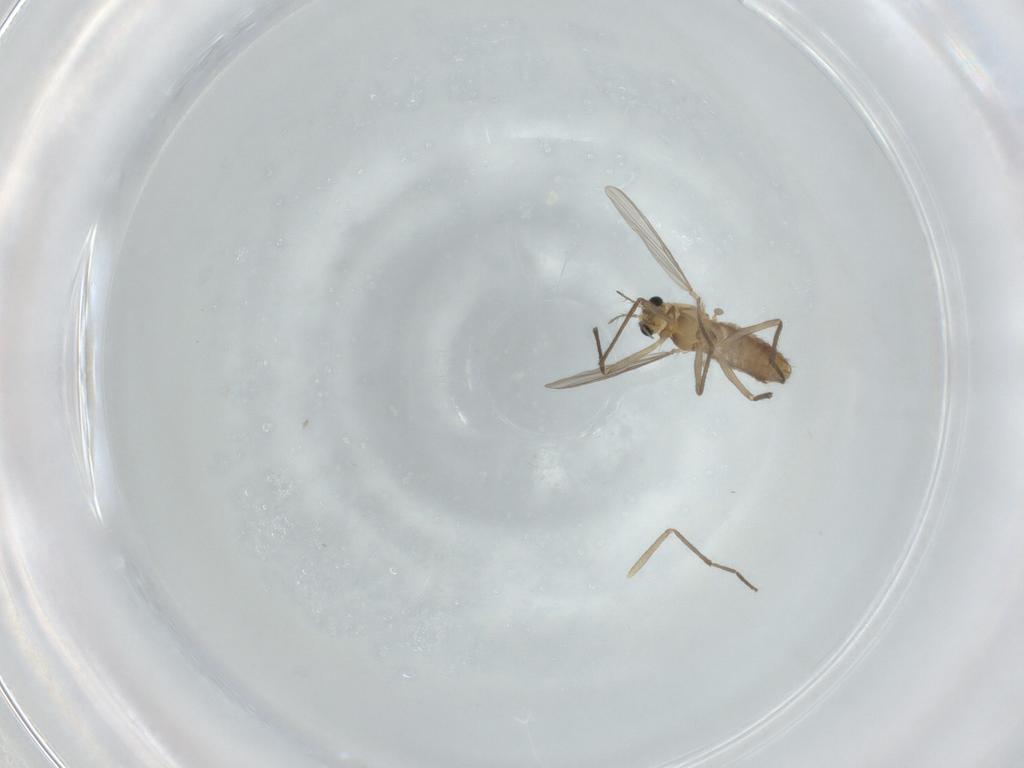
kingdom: Animalia
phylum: Arthropoda
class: Insecta
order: Diptera
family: Chironomidae
